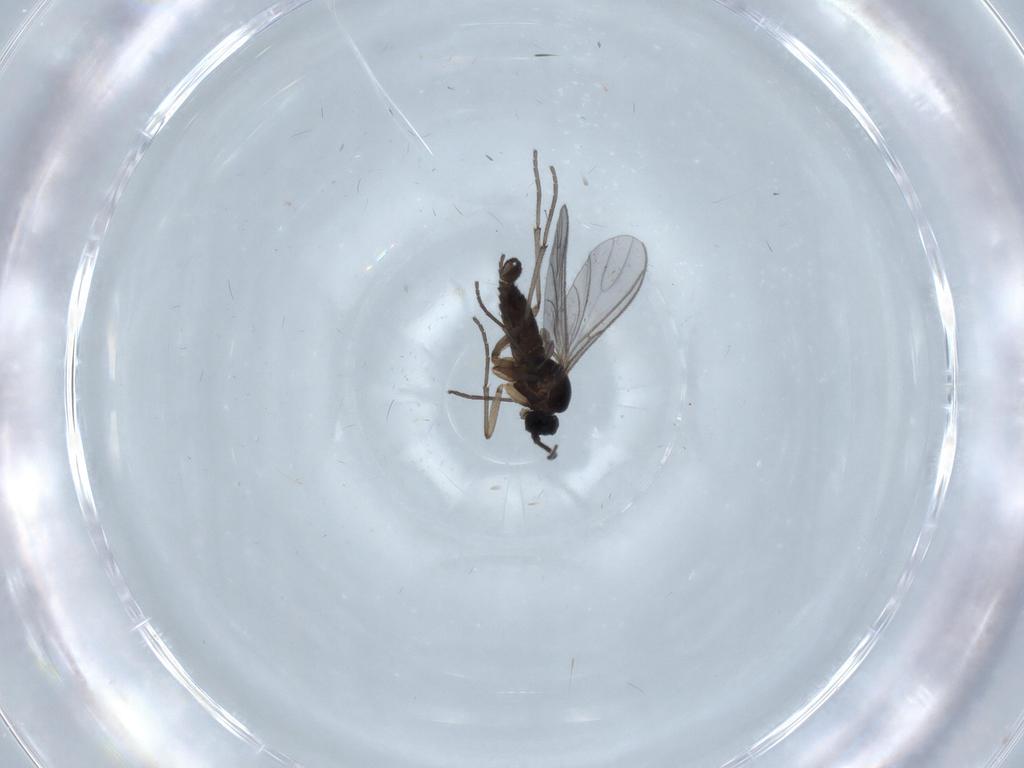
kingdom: Animalia
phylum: Arthropoda
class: Insecta
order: Diptera
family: Sciaridae
